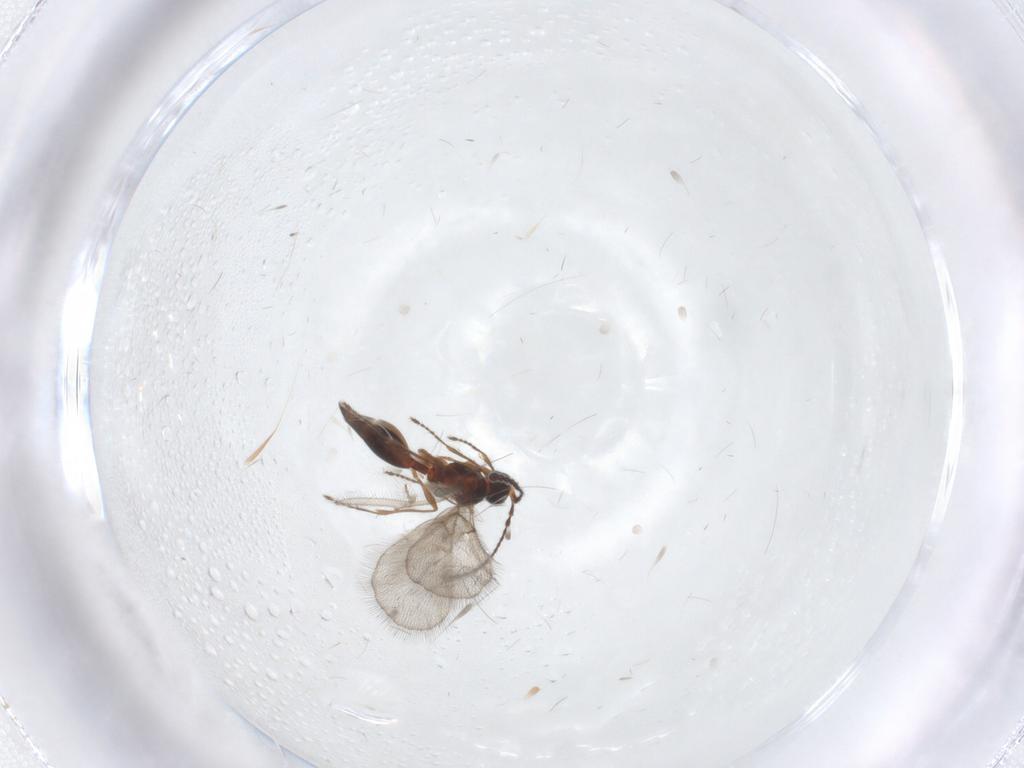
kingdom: Animalia
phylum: Arthropoda
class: Insecta
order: Hymenoptera
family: Diapriidae
